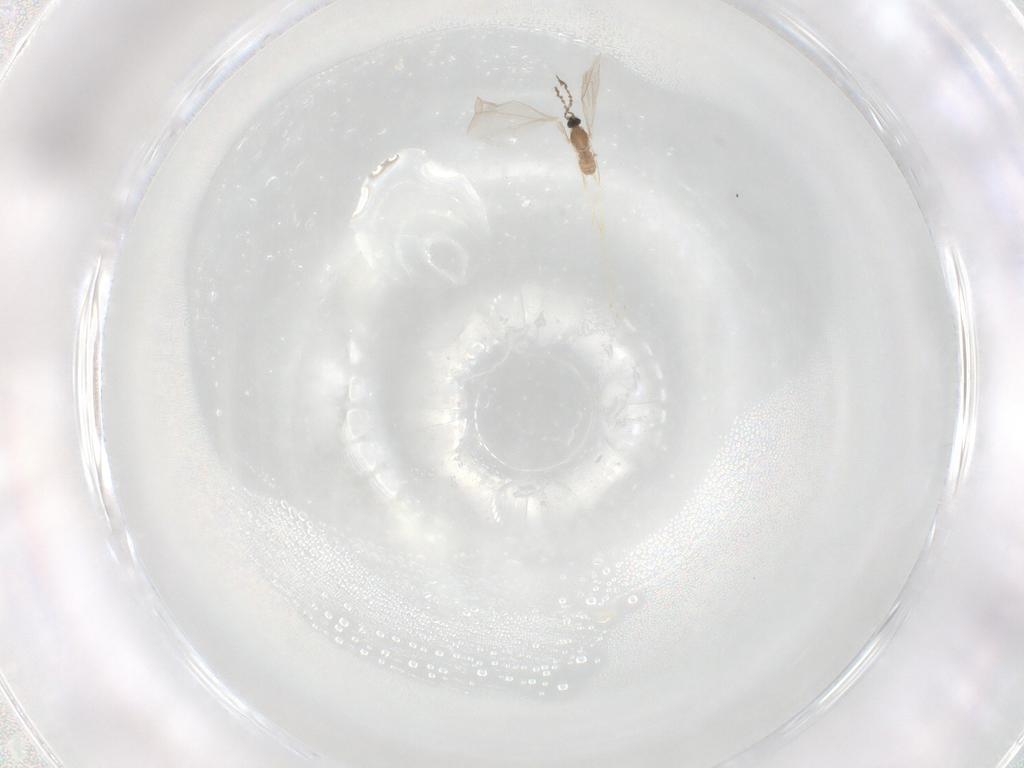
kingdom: Animalia
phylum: Arthropoda
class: Insecta
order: Diptera
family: Cecidomyiidae
